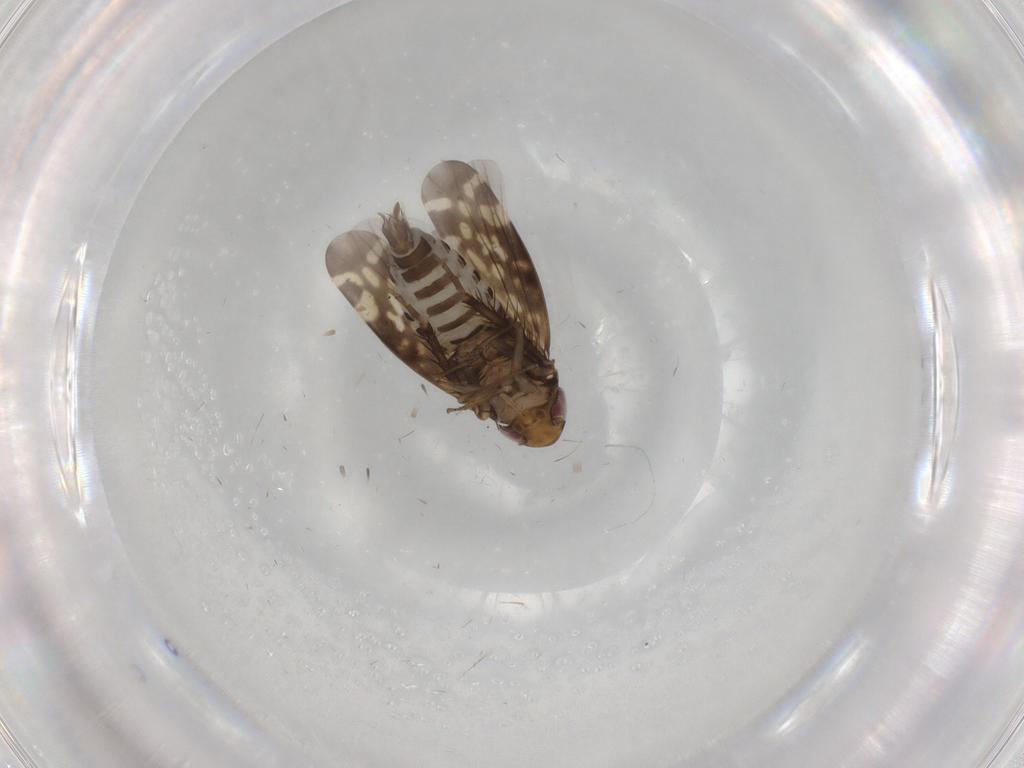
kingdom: Animalia
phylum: Arthropoda
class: Insecta
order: Hemiptera
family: Cicadellidae
